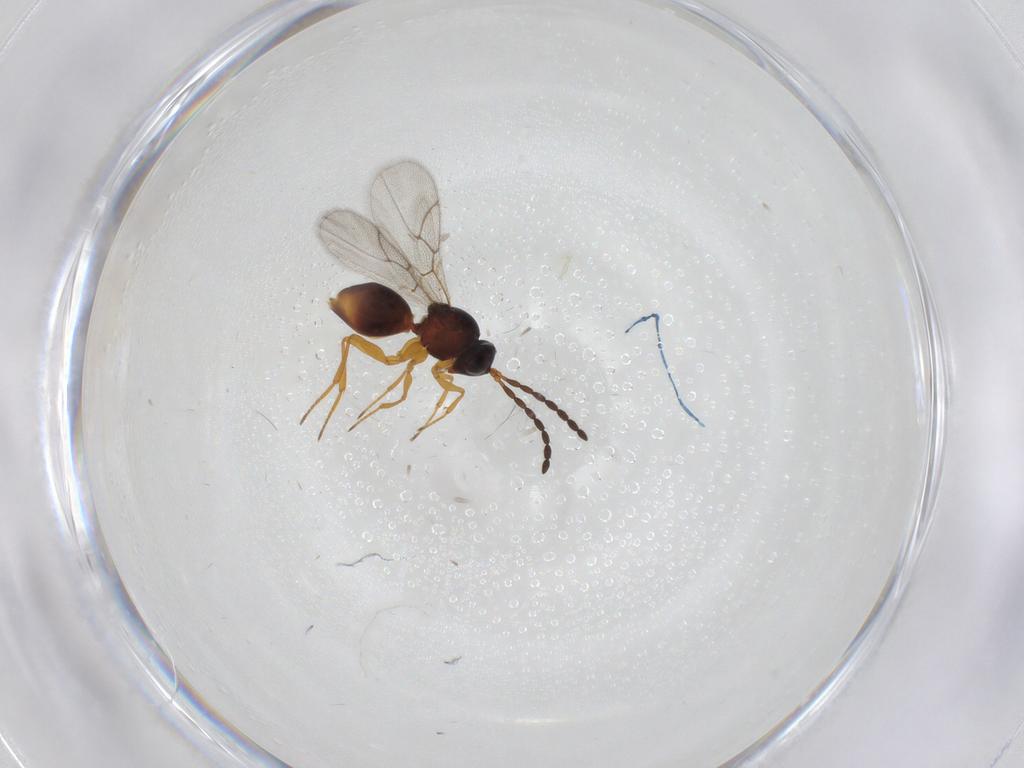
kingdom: Animalia
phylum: Arthropoda
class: Insecta
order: Hymenoptera
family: Figitidae
